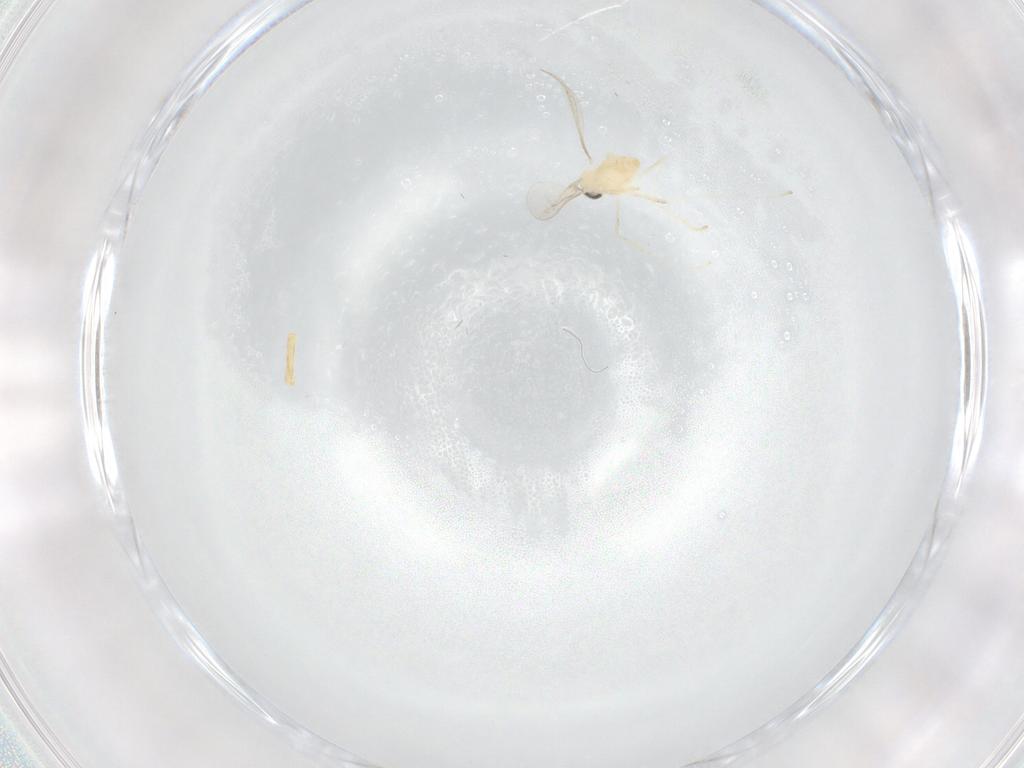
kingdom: Animalia
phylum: Arthropoda
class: Insecta
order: Diptera
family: Cecidomyiidae
